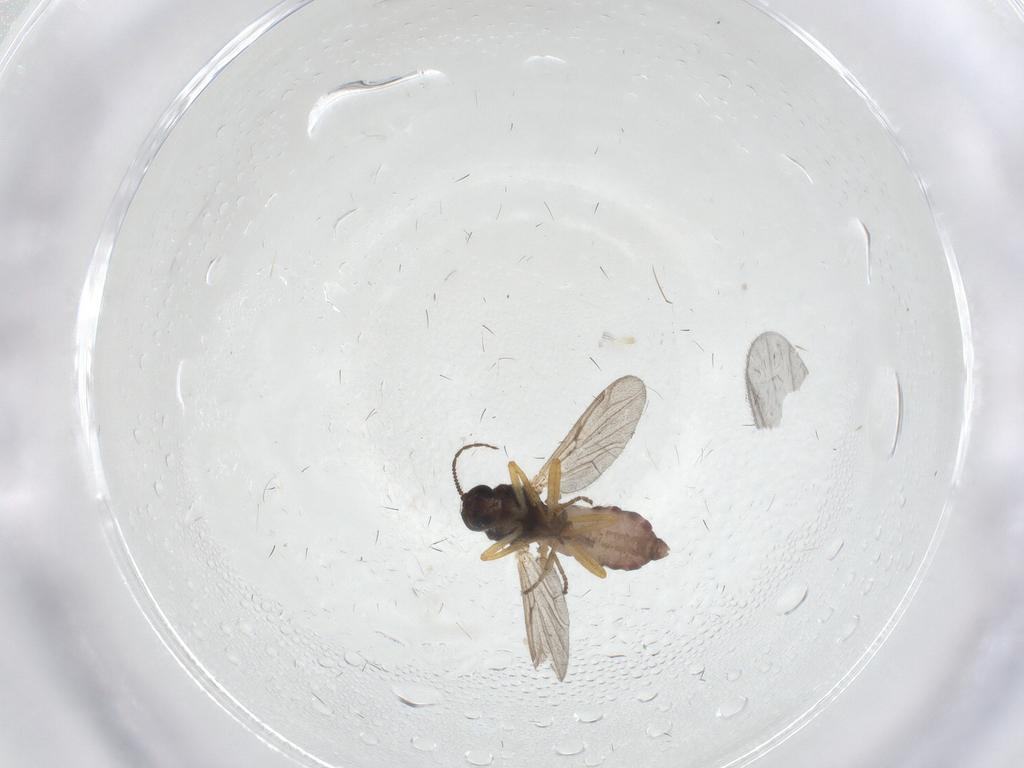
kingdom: Animalia
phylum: Arthropoda
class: Insecta
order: Diptera
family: Ceratopogonidae
